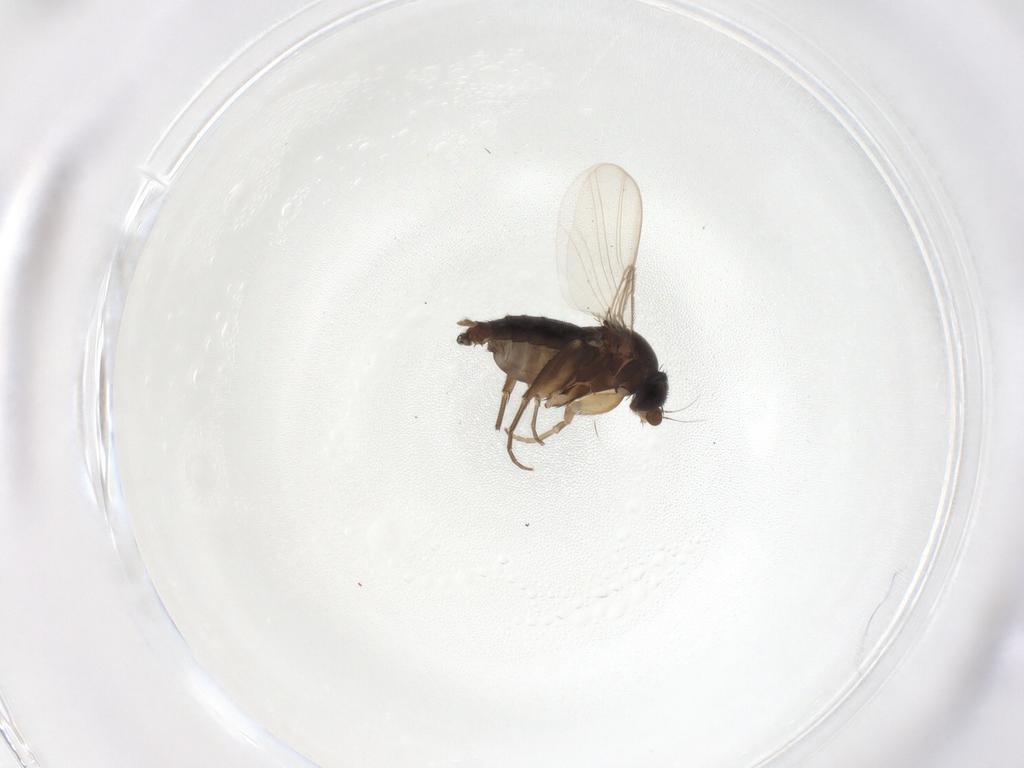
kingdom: Animalia
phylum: Arthropoda
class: Insecta
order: Diptera
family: Phoridae
